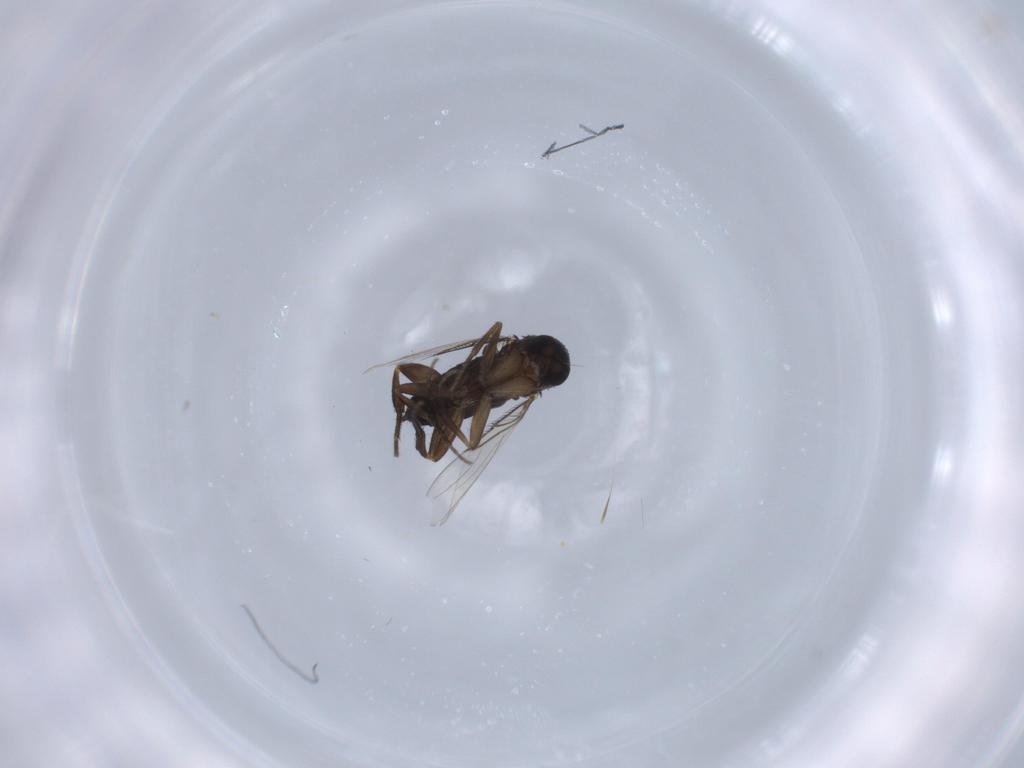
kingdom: Animalia
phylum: Arthropoda
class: Insecta
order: Diptera
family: Phoridae
